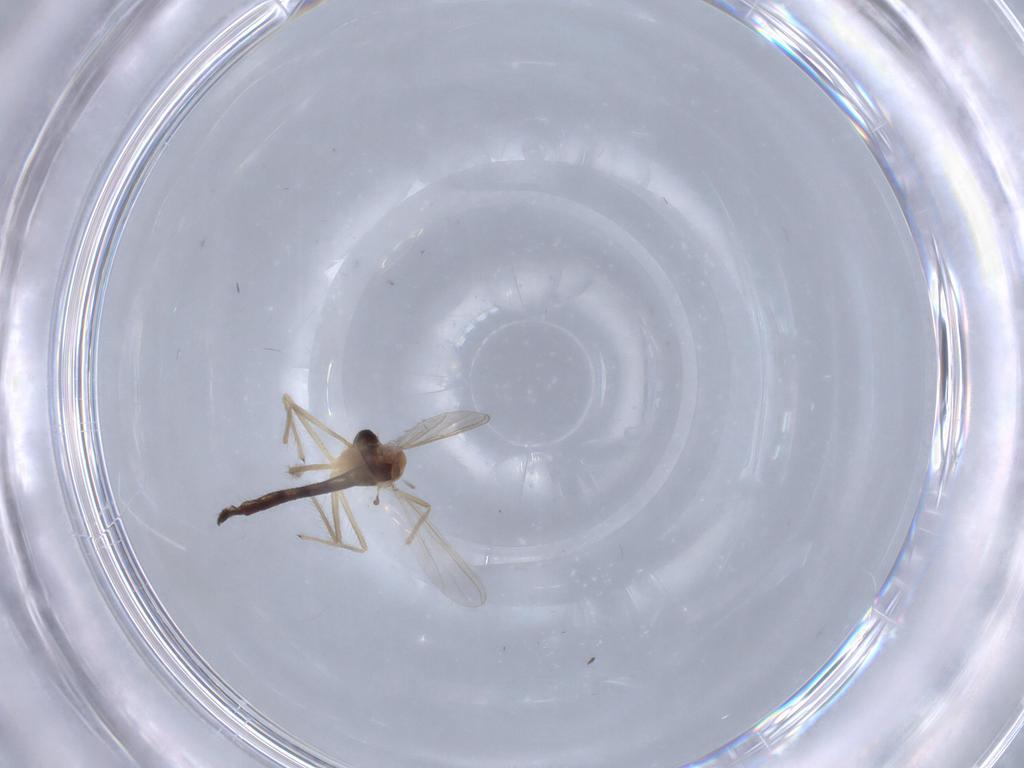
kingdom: Animalia
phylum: Arthropoda
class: Insecta
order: Diptera
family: Chironomidae
